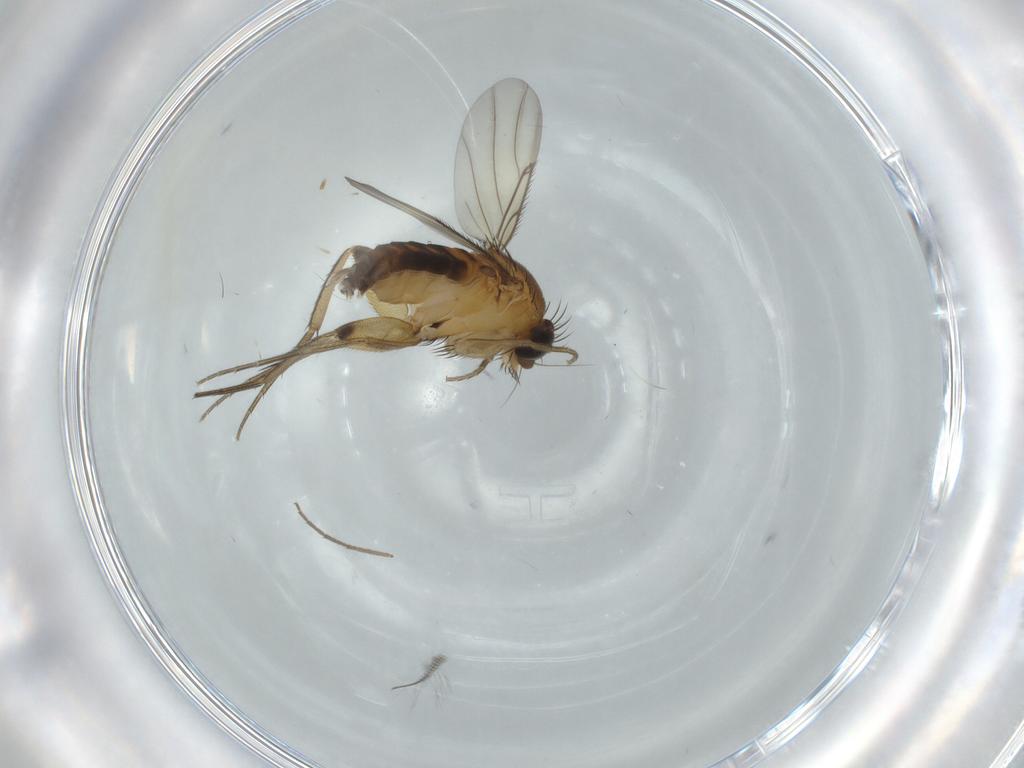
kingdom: Animalia
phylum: Arthropoda
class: Insecta
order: Diptera
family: Phoridae
